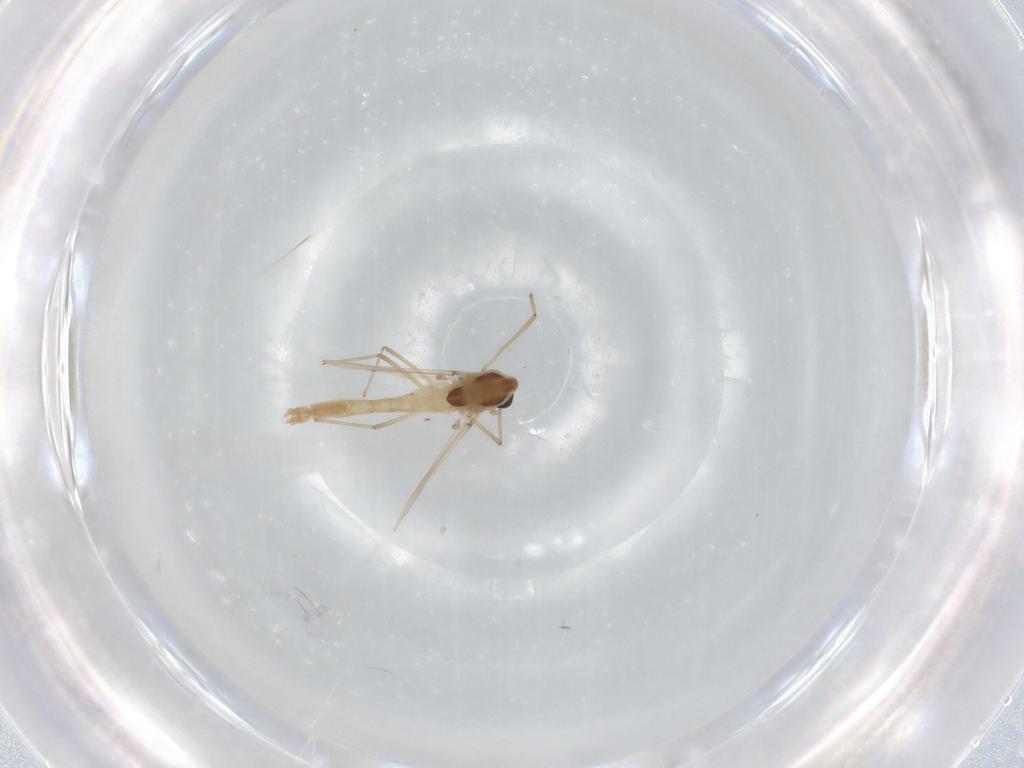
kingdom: Animalia
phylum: Arthropoda
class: Insecta
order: Diptera
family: Chironomidae
